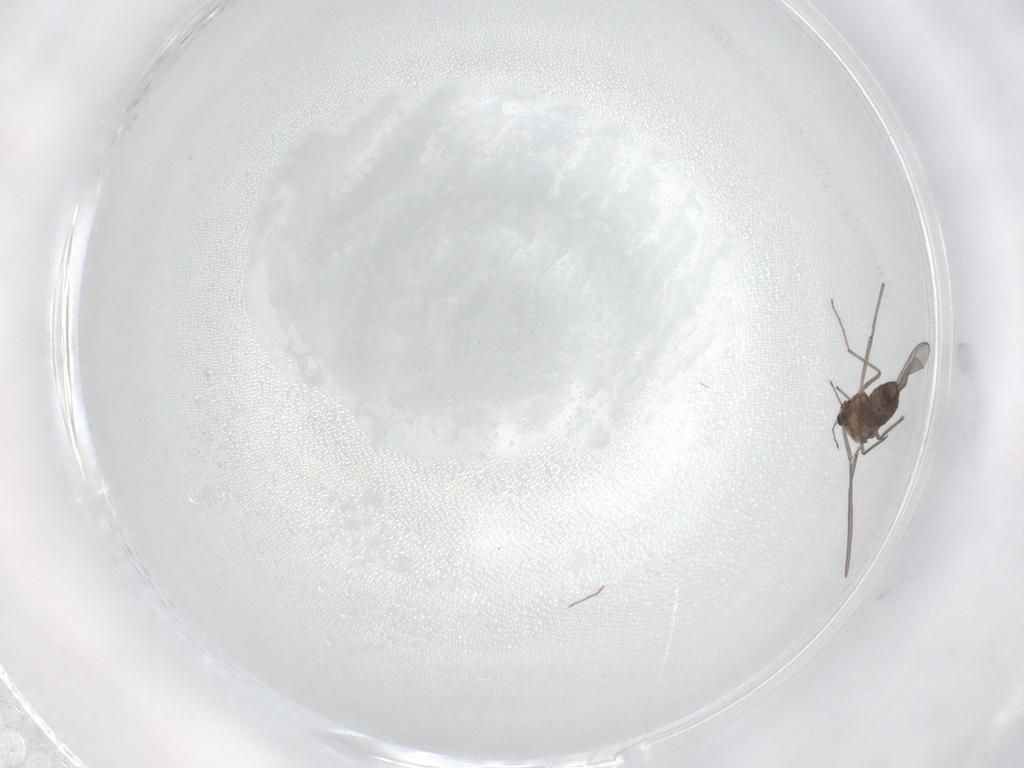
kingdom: Animalia
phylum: Arthropoda
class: Insecta
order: Diptera
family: Chironomidae
